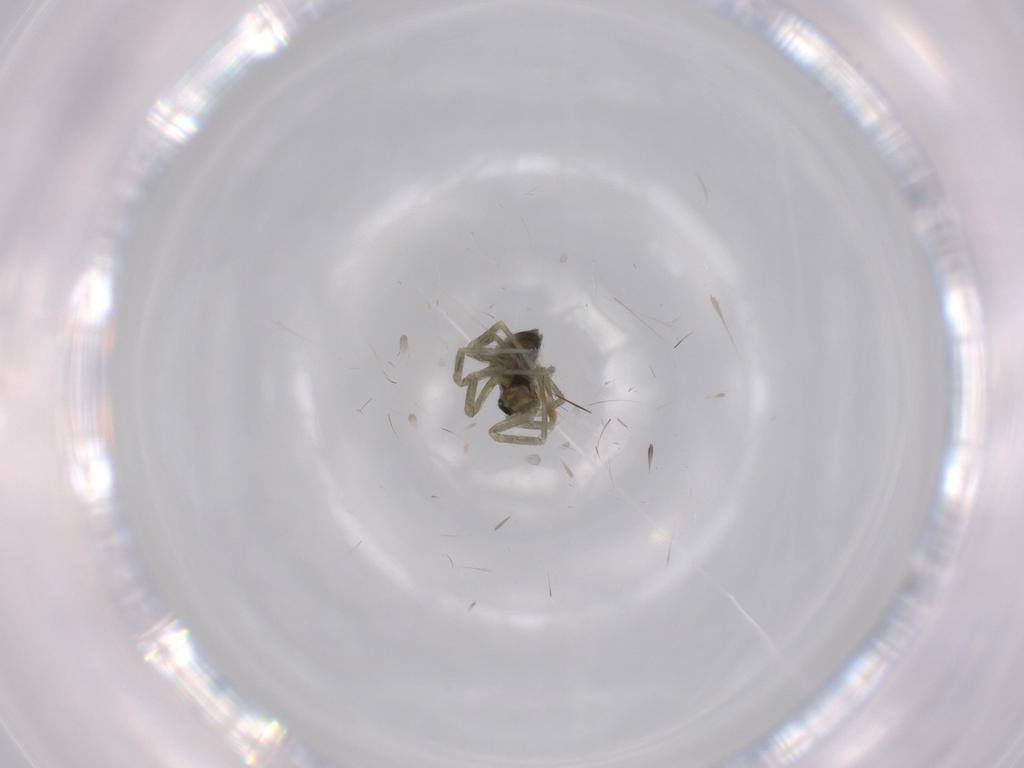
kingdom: Animalia
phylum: Arthropoda
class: Arachnida
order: Araneae
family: Linyphiidae
